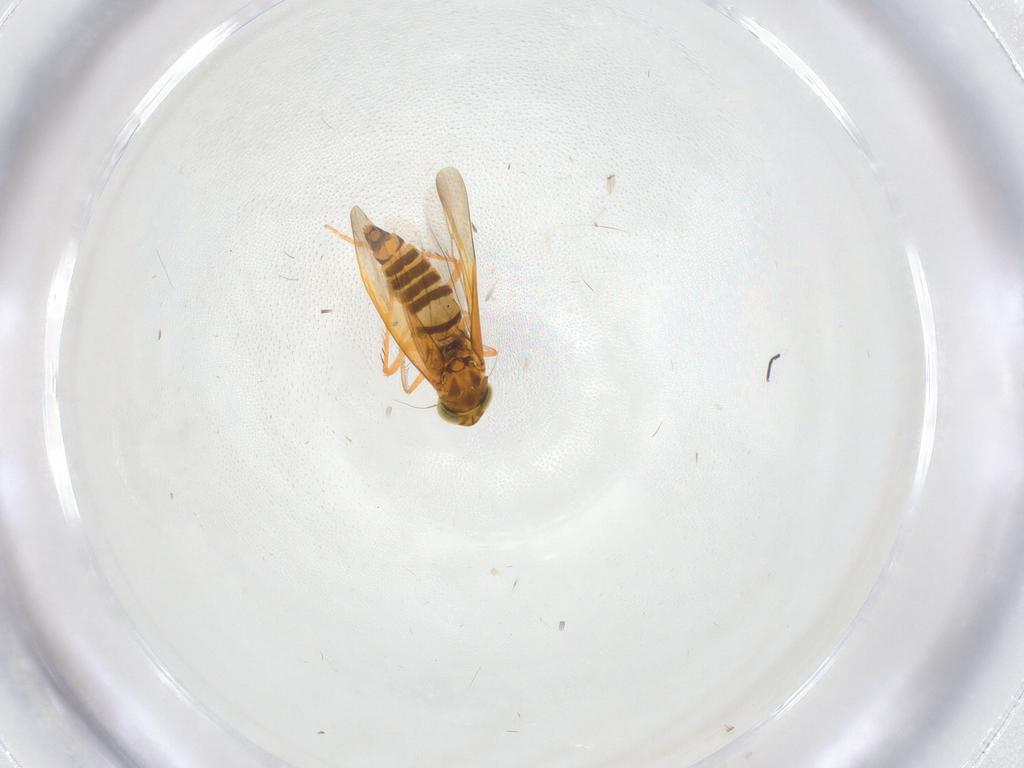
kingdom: Animalia
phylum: Arthropoda
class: Insecta
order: Hemiptera
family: Cicadellidae
